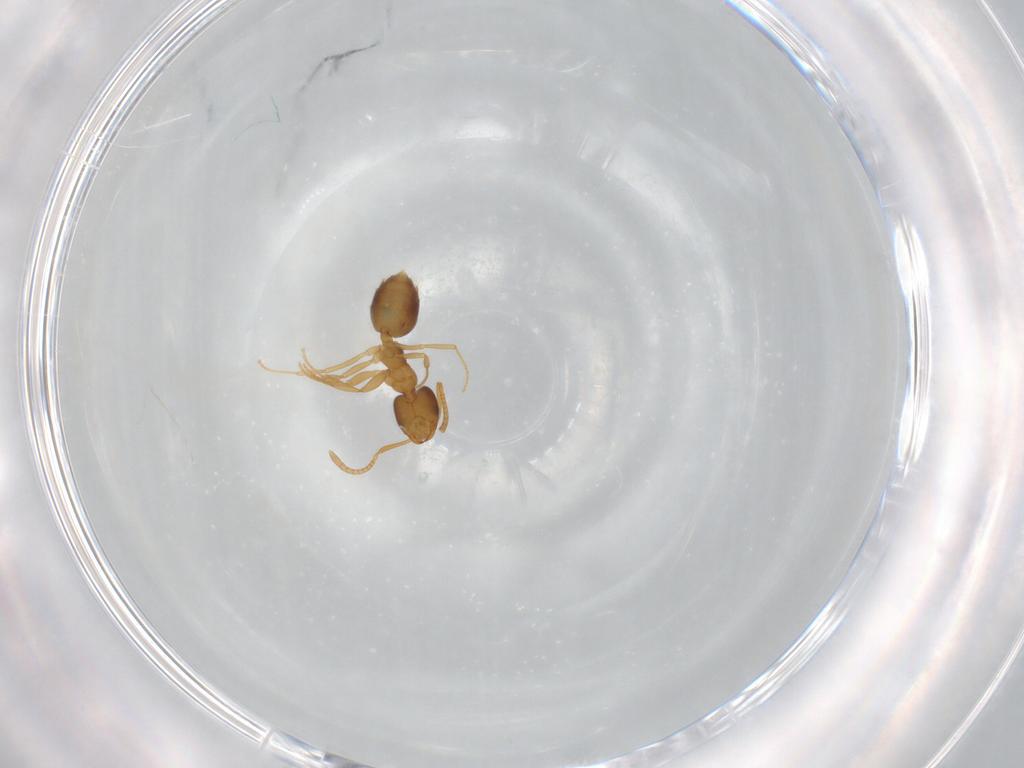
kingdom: Animalia
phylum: Arthropoda
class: Insecta
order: Hymenoptera
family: Formicidae
